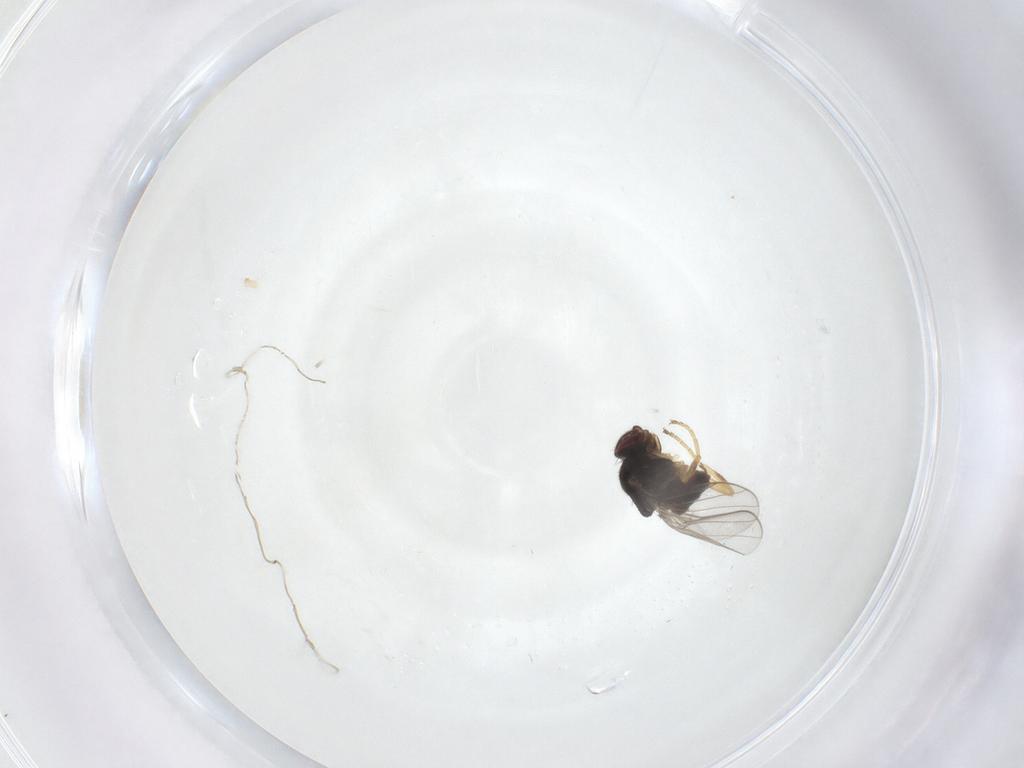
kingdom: Animalia
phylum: Arthropoda
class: Insecta
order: Diptera
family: Chloropidae
